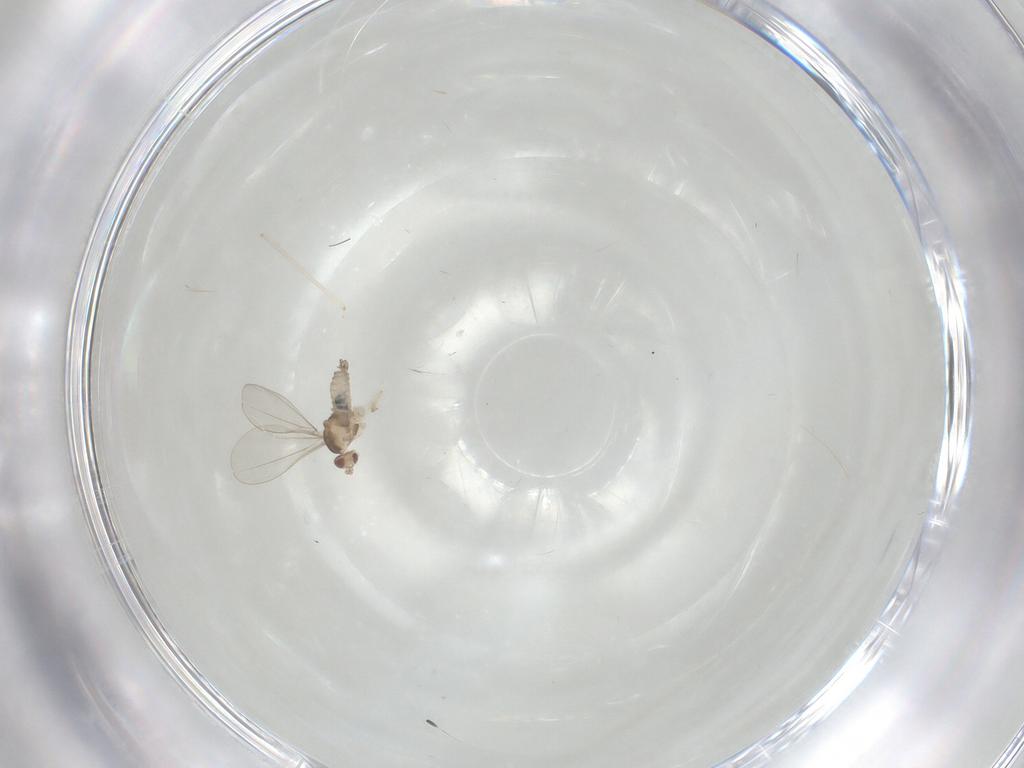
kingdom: Animalia
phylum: Arthropoda
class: Insecta
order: Diptera
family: Cecidomyiidae
